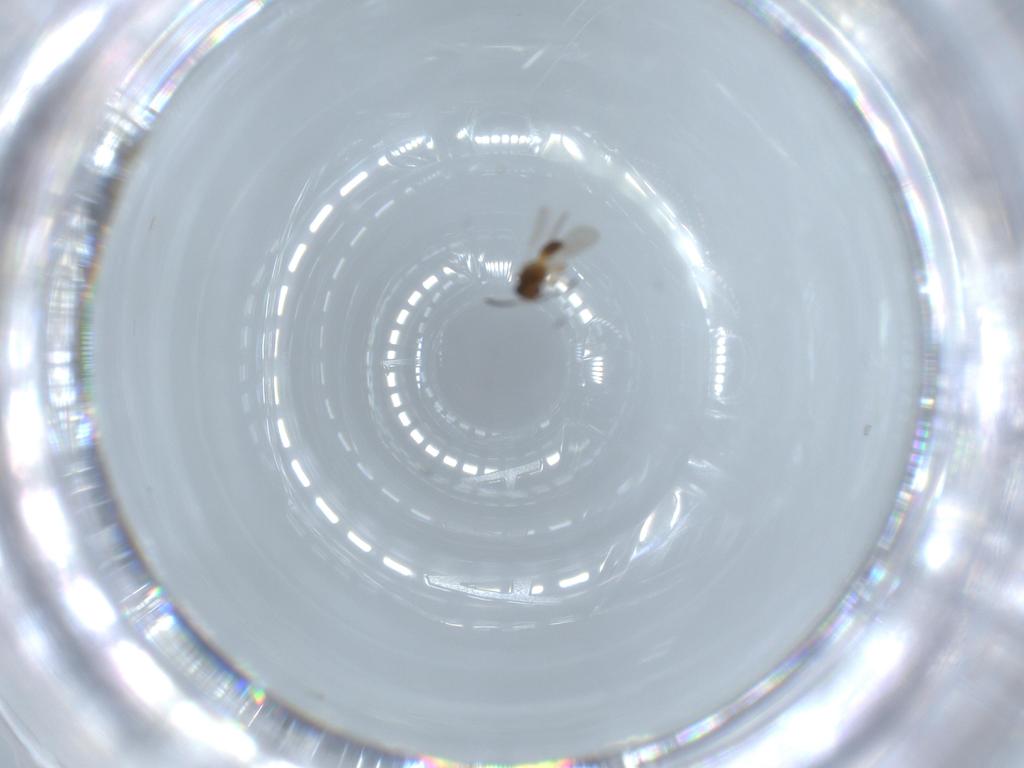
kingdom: Animalia
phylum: Arthropoda
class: Insecta
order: Hymenoptera
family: Scelionidae
